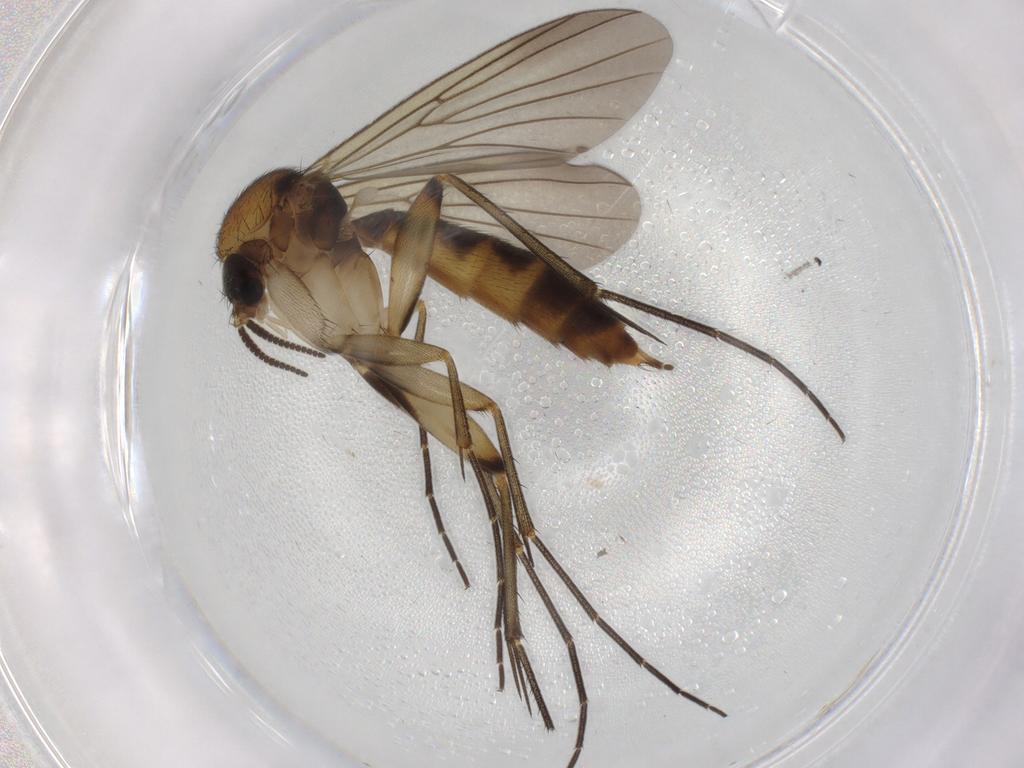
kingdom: Animalia
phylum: Arthropoda
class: Insecta
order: Diptera
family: Mycetophilidae
